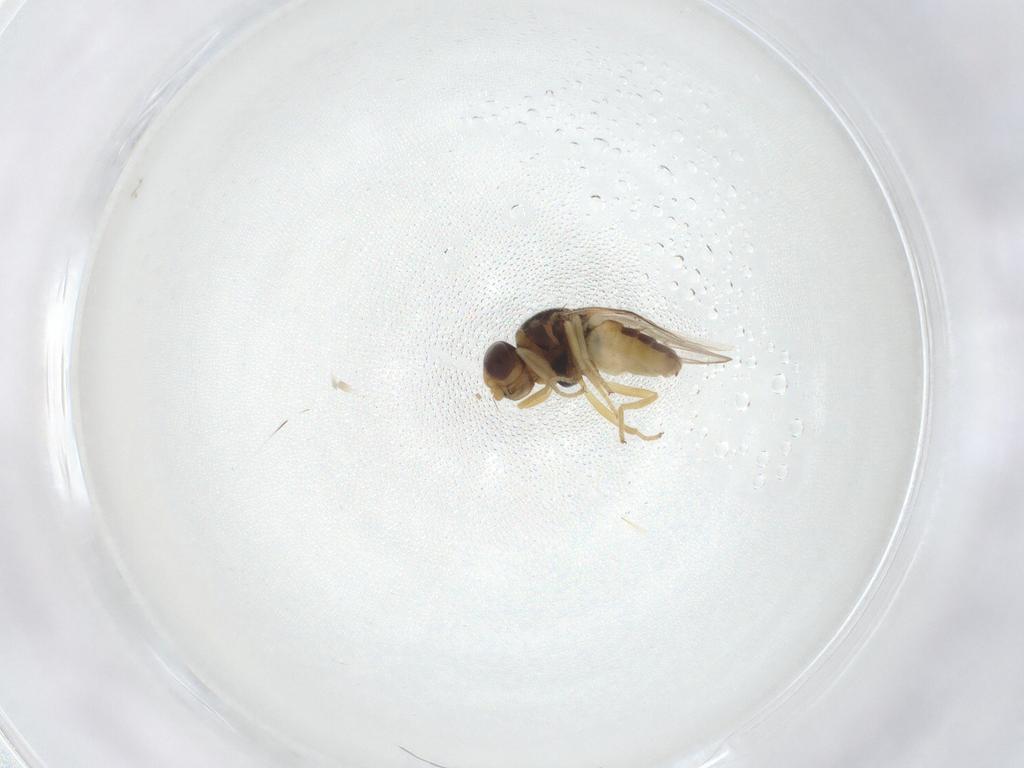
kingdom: Animalia
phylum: Arthropoda
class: Insecta
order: Diptera
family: Chloropidae
